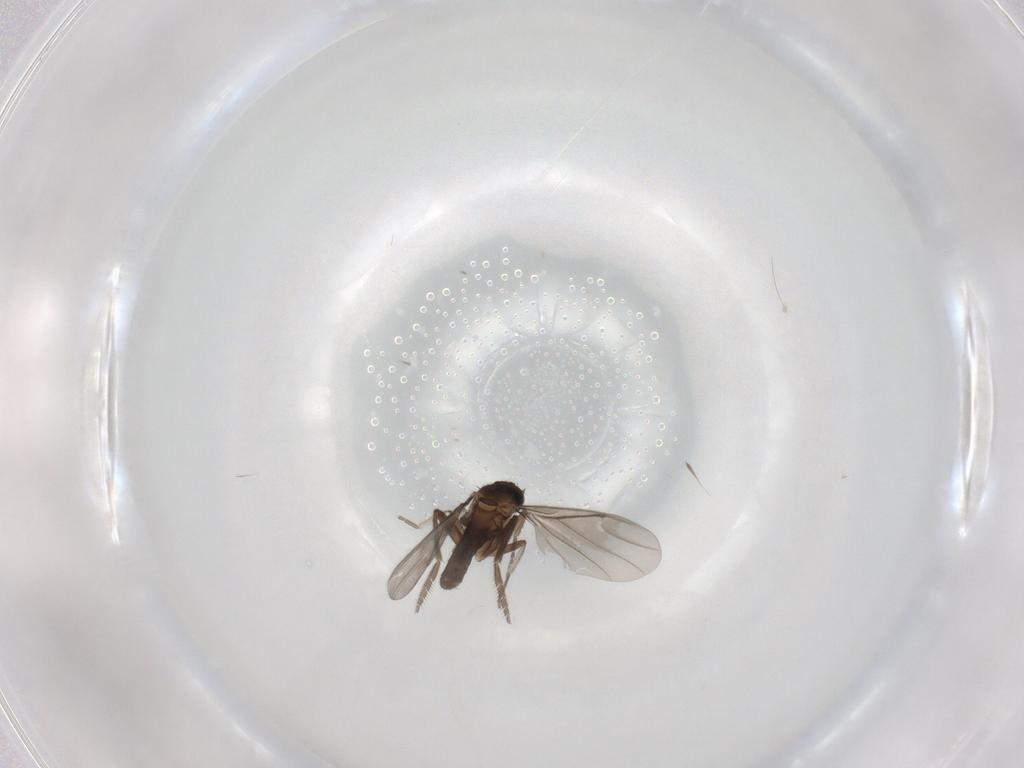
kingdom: Animalia
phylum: Arthropoda
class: Insecta
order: Diptera
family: Phoridae
